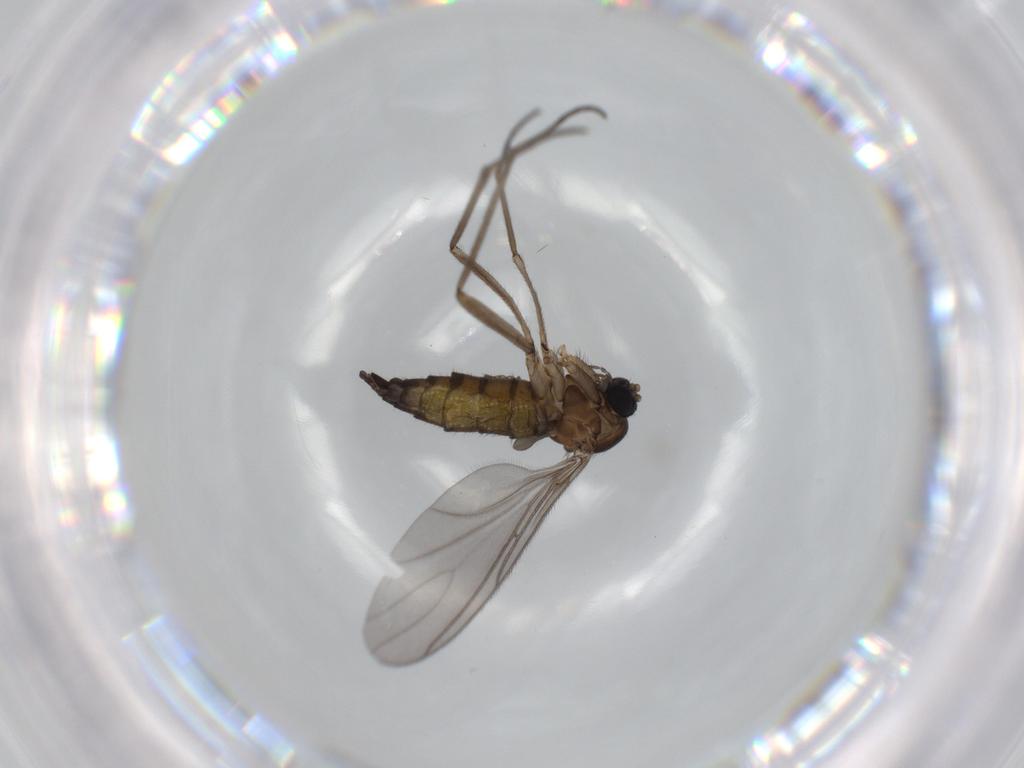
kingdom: Animalia
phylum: Arthropoda
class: Insecta
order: Diptera
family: Sciaridae
